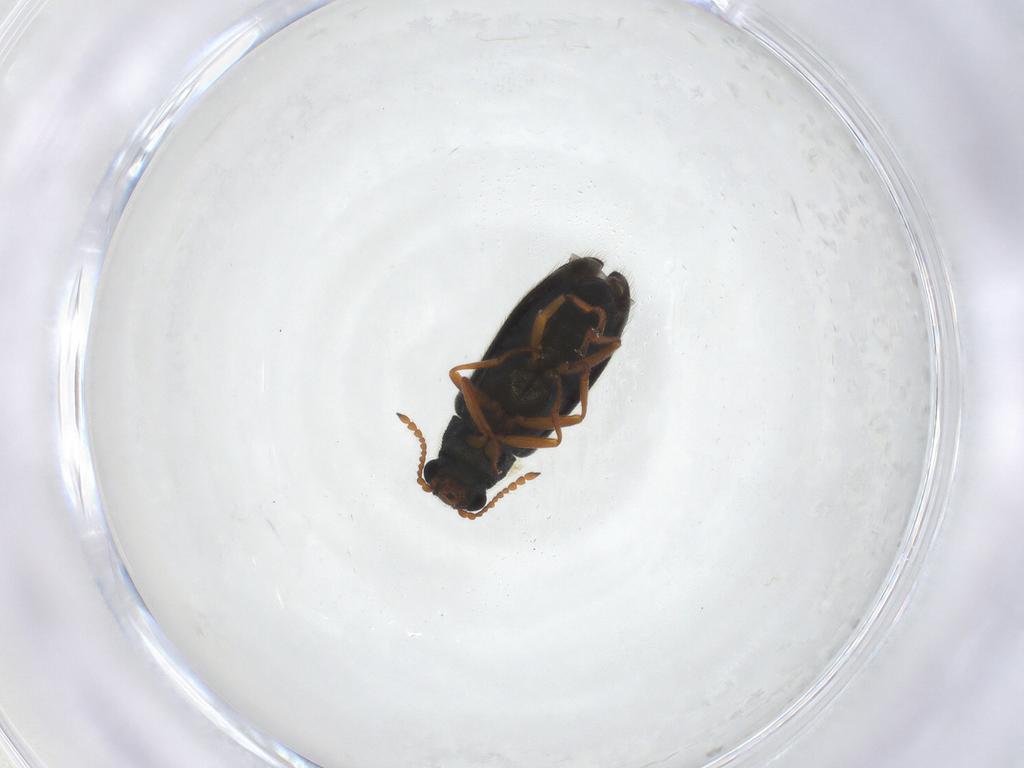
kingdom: Animalia
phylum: Arthropoda
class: Insecta
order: Coleoptera
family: Melyridae
